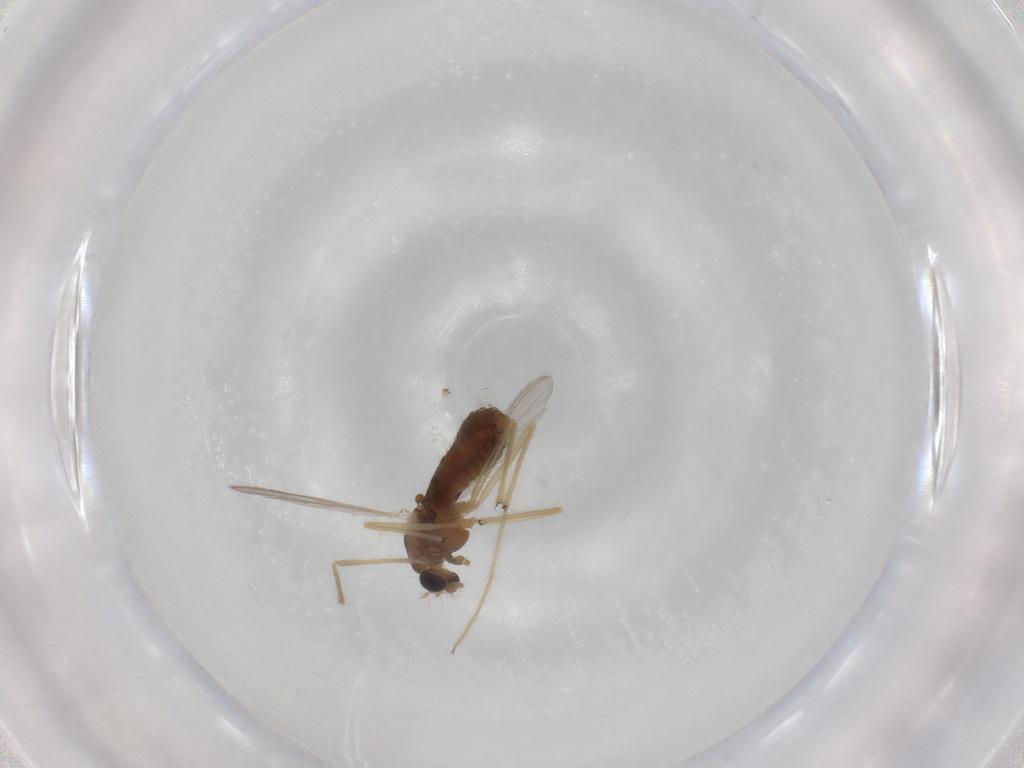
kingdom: Animalia
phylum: Arthropoda
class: Insecta
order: Diptera
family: Chironomidae
